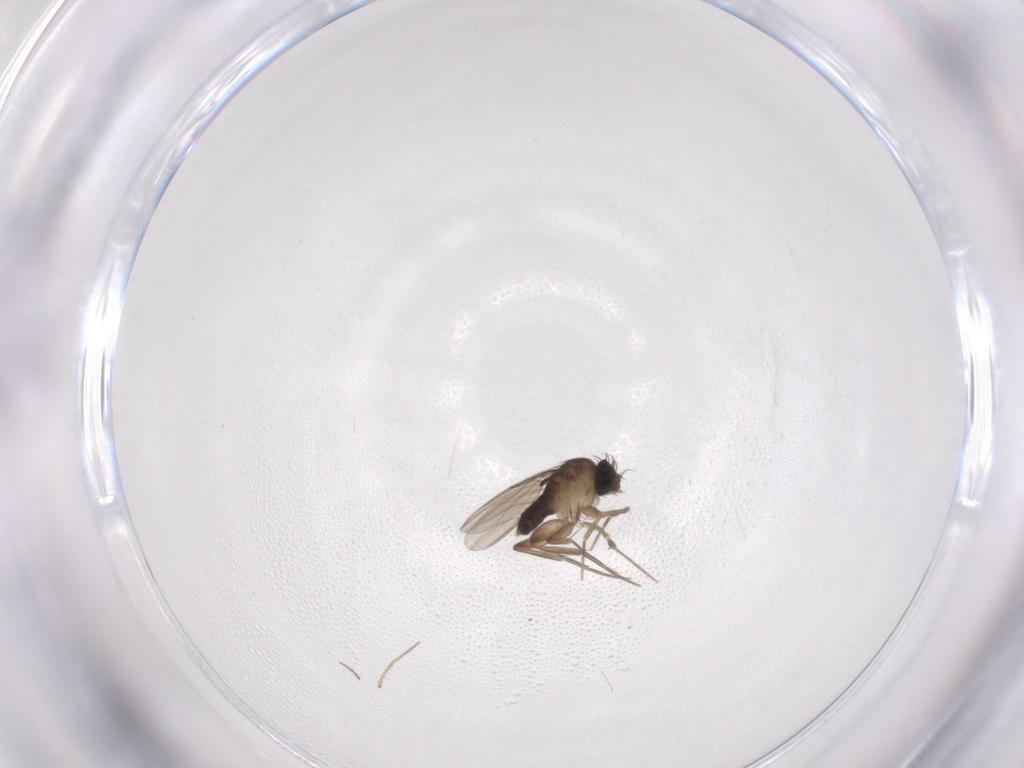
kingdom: Animalia
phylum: Arthropoda
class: Insecta
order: Diptera
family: Phoridae
